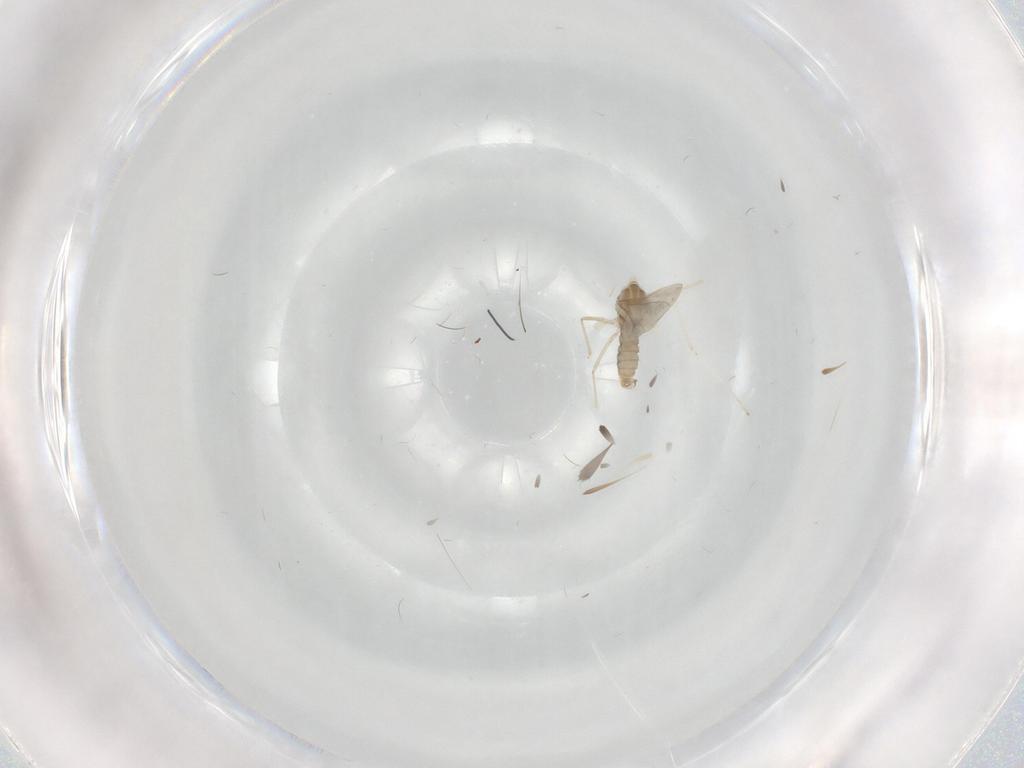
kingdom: Animalia
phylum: Arthropoda
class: Insecta
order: Diptera
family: Cecidomyiidae
